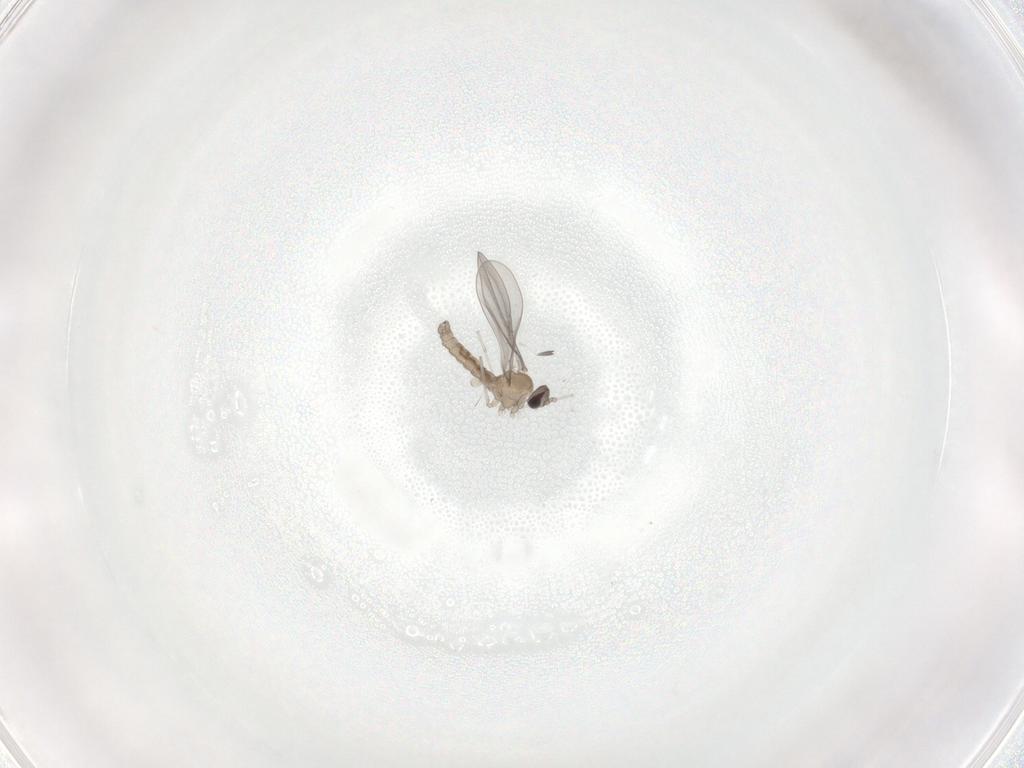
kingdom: Animalia
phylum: Arthropoda
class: Insecta
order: Diptera
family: Cecidomyiidae
